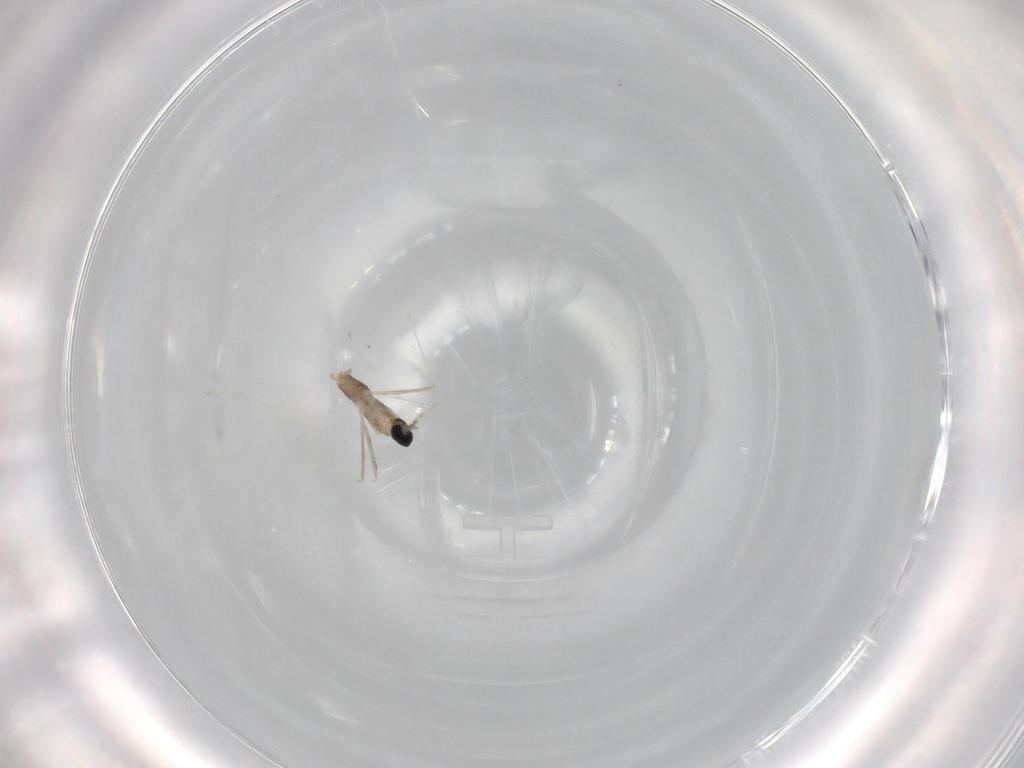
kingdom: Animalia
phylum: Arthropoda
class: Insecta
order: Diptera
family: Cecidomyiidae
